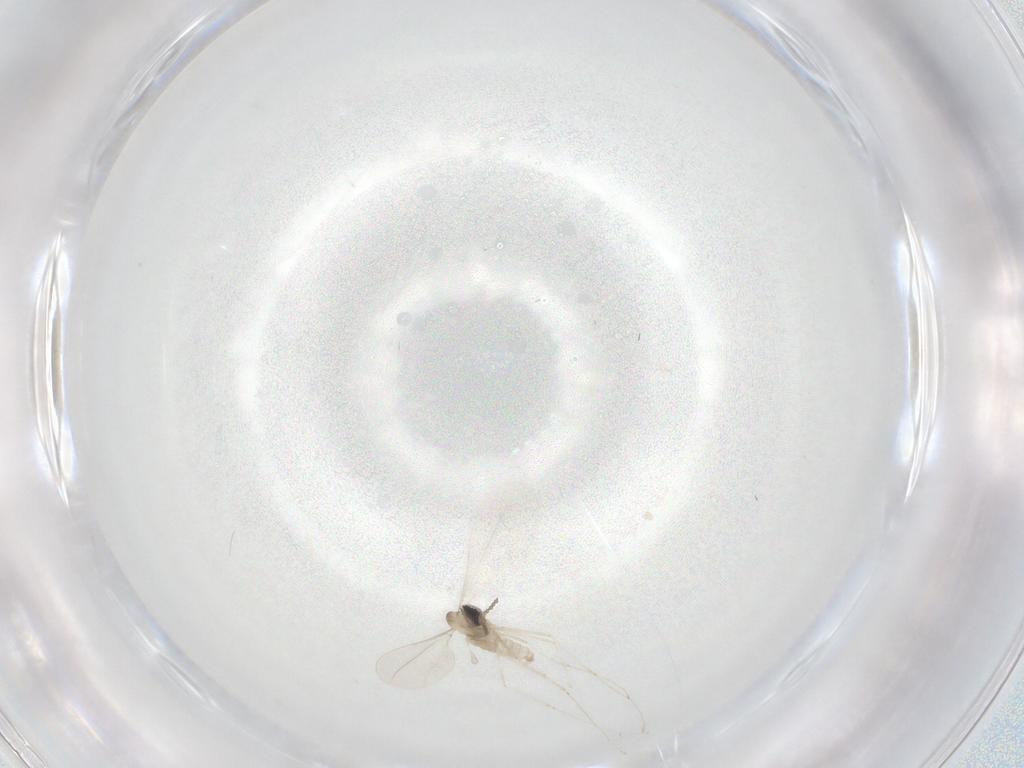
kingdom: Animalia
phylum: Arthropoda
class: Insecta
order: Diptera
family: Cecidomyiidae
